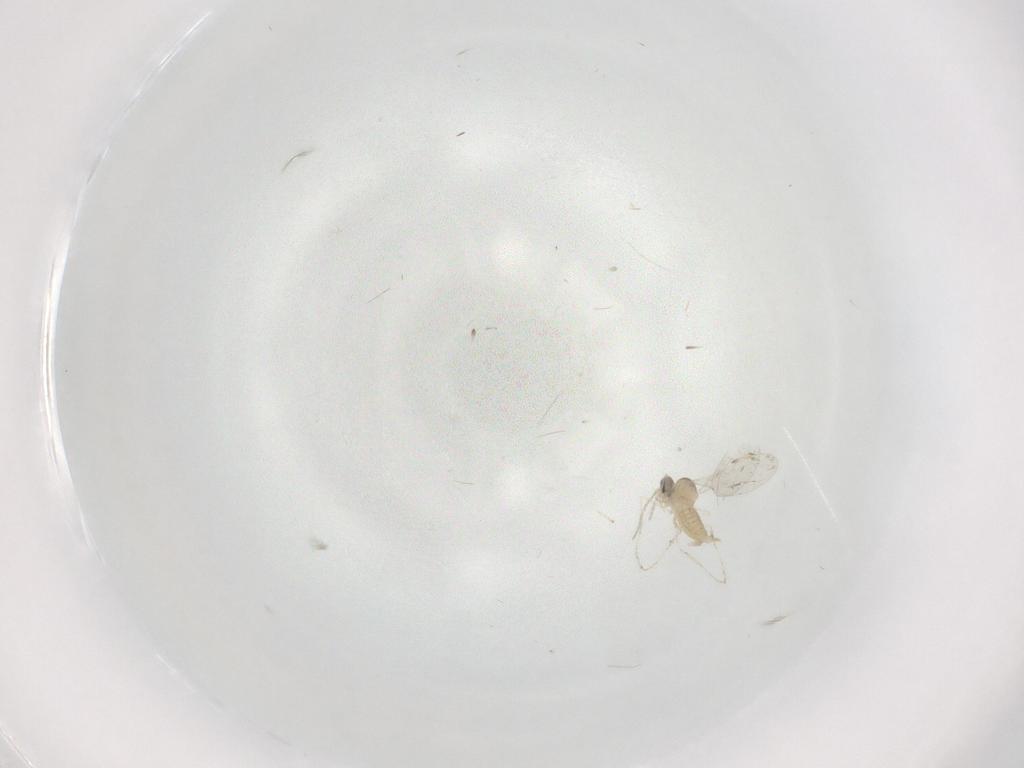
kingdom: Animalia
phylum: Arthropoda
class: Insecta
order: Diptera
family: Cecidomyiidae
